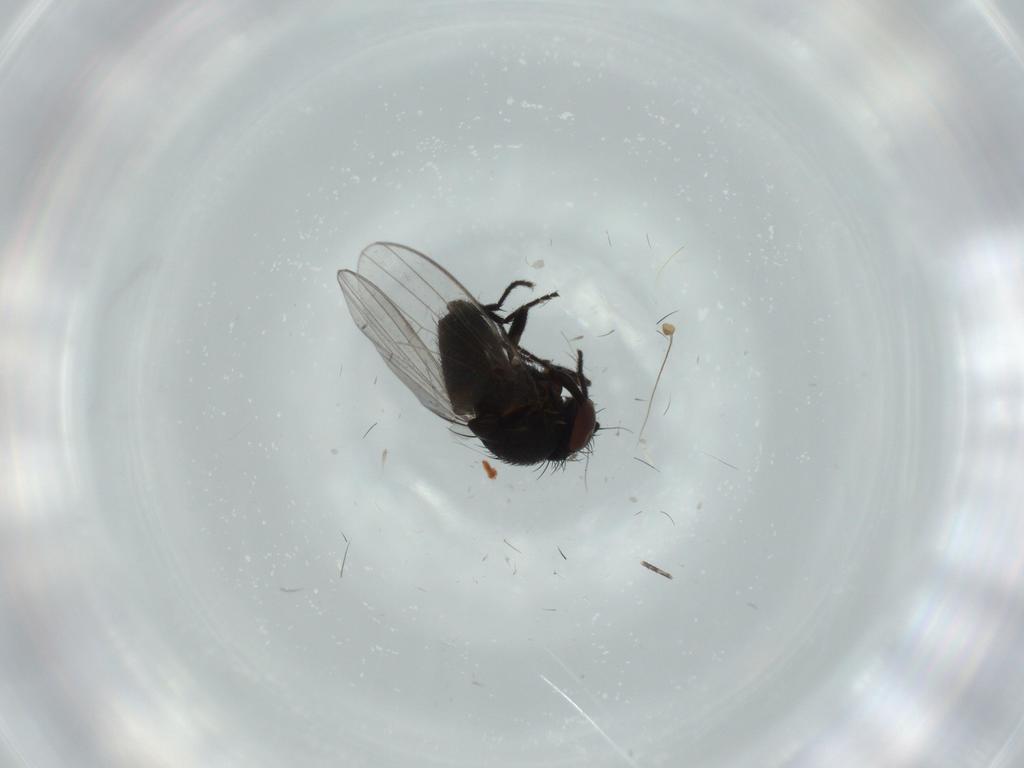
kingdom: Animalia
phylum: Arthropoda
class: Insecta
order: Diptera
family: Milichiidae
